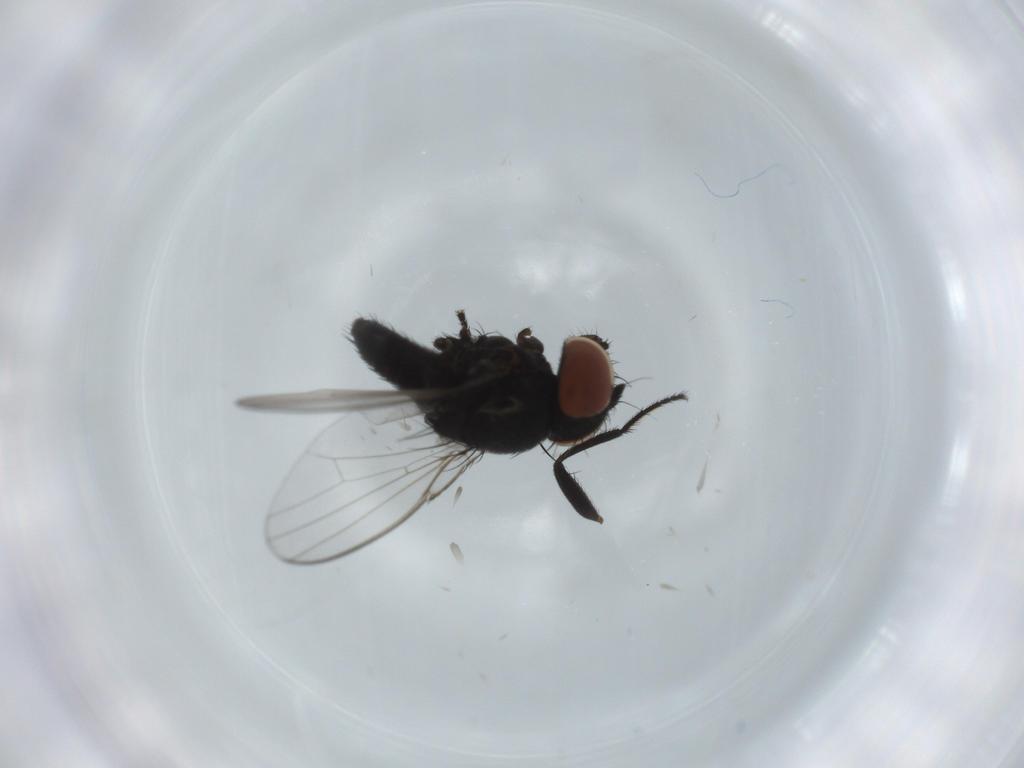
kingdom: Animalia
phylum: Arthropoda
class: Insecta
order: Diptera
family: Milichiidae
